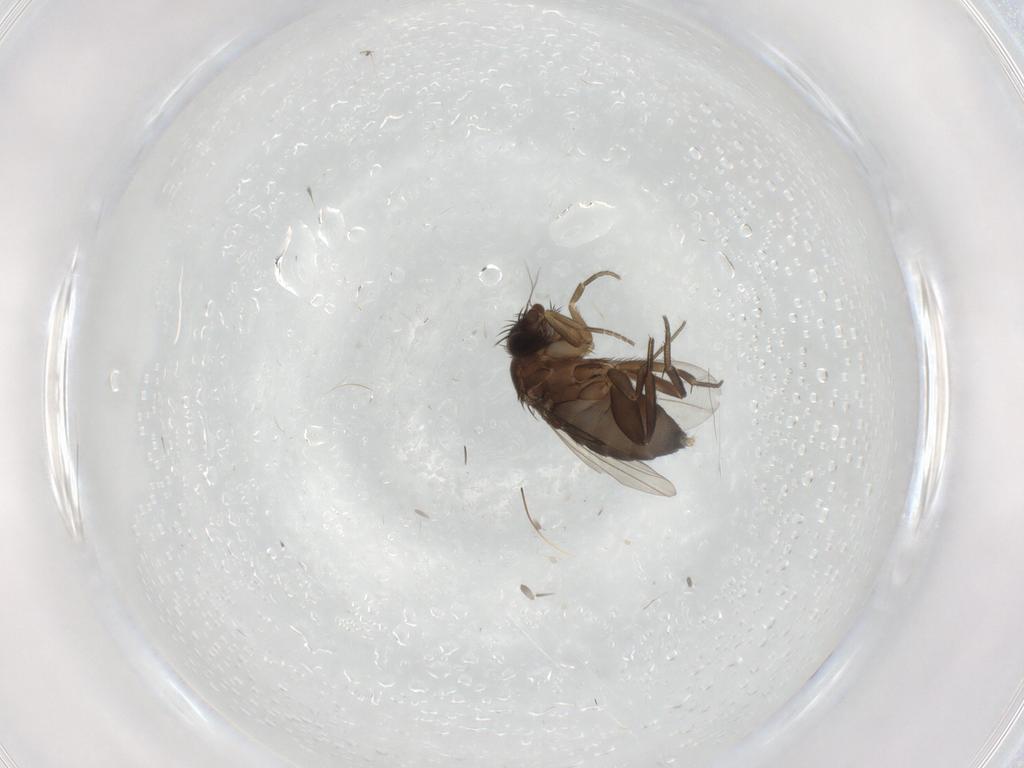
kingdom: Animalia
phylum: Arthropoda
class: Insecta
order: Diptera
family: Phoridae
